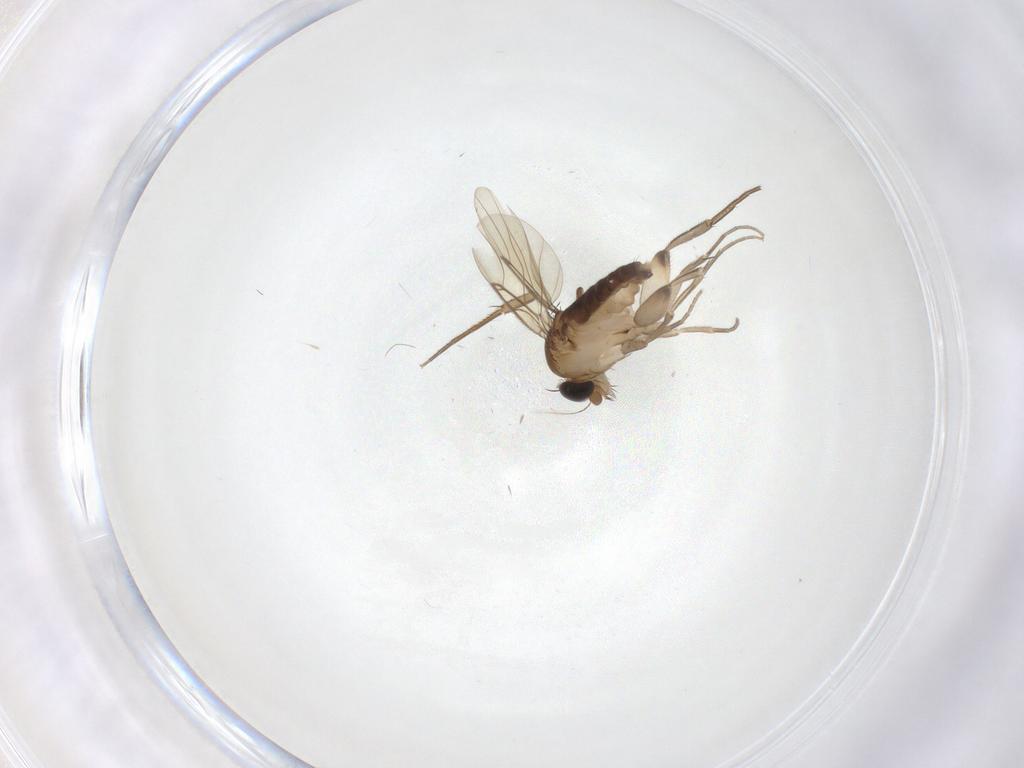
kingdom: Animalia
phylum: Arthropoda
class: Insecta
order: Diptera
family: Phoridae
